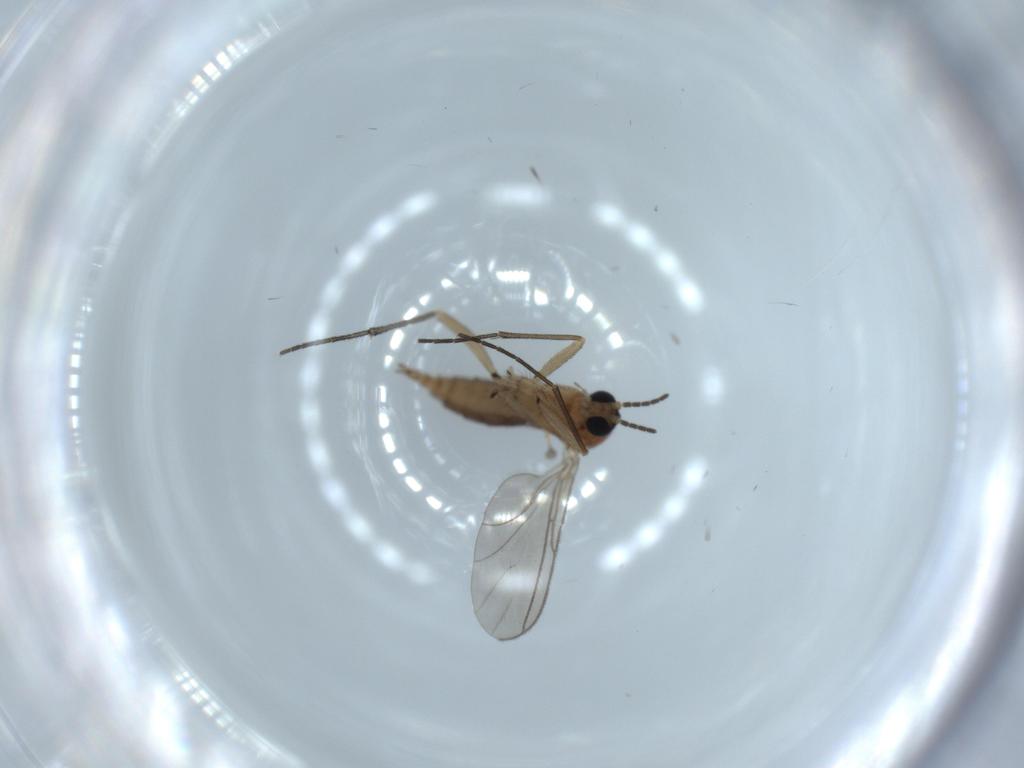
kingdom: Animalia
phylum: Arthropoda
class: Insecta
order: Diptera
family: Sciaridae
